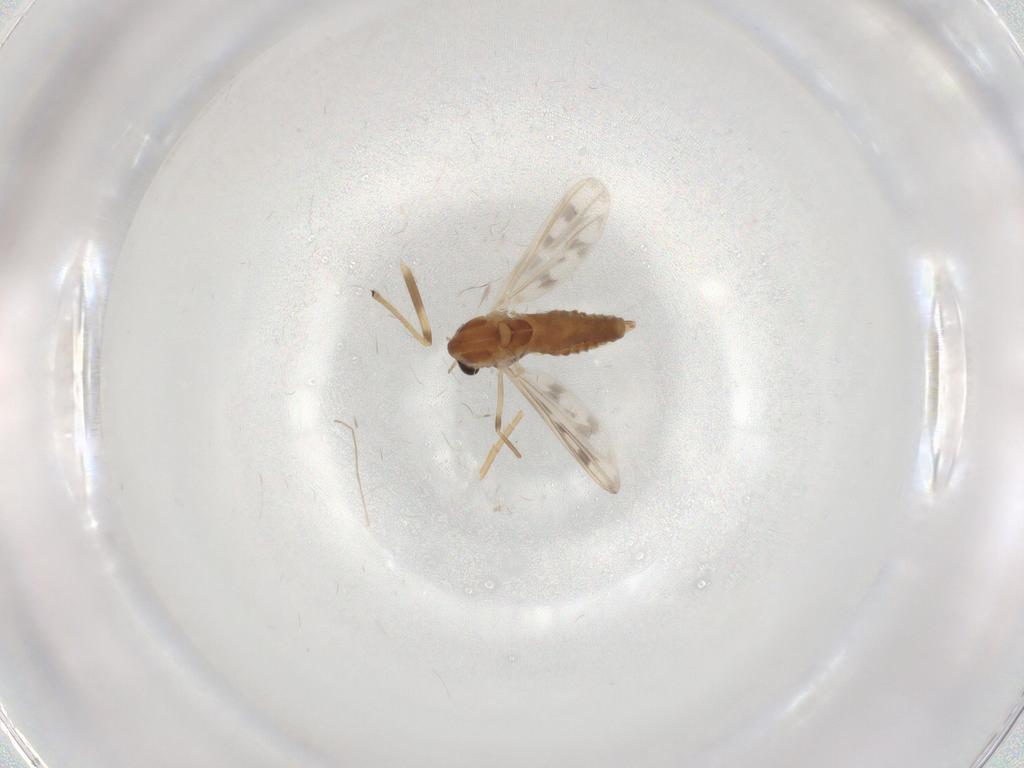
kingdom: Animalia
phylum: Arthropoda
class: Insecta
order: Diptera
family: Chironomidae
